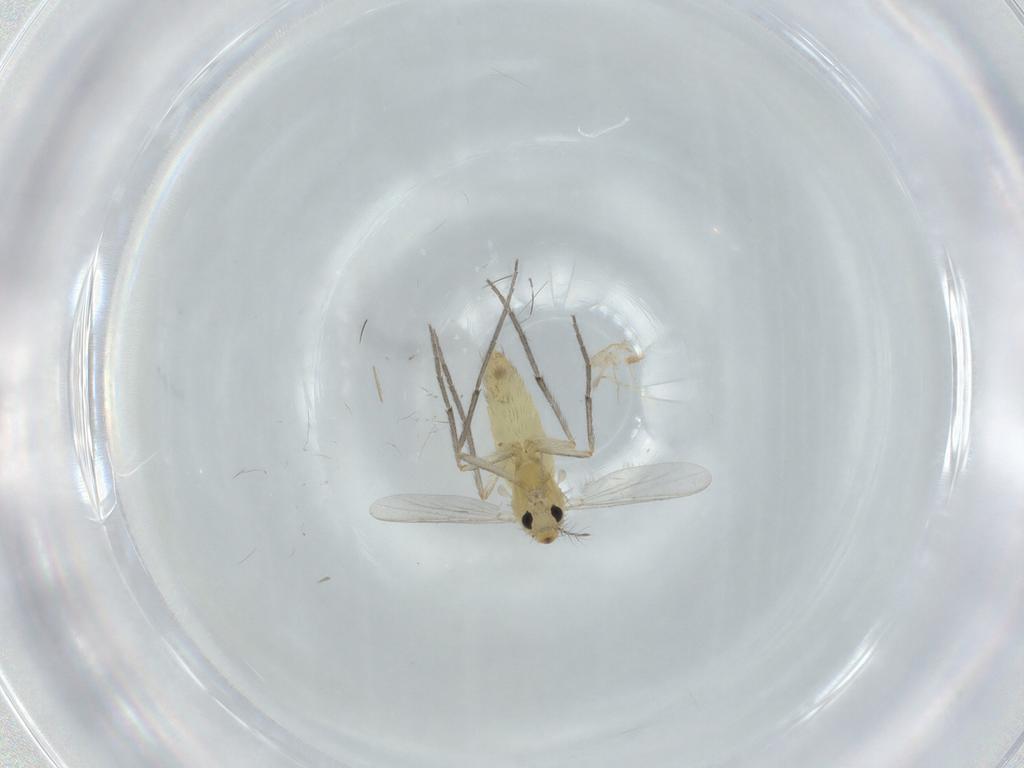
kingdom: Animalia
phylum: Arthropoda
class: Insecta
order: Diptera
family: Chironomidae
